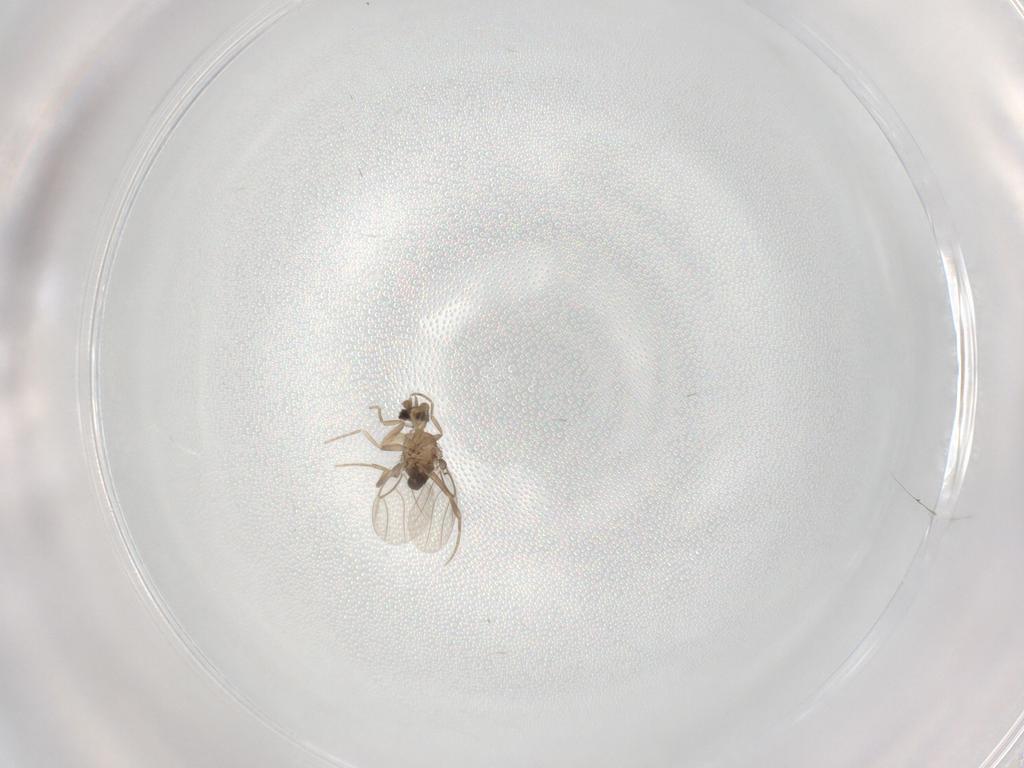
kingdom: Animalia
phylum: Arthropoda
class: Insecta
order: Diptera
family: Phoridae
